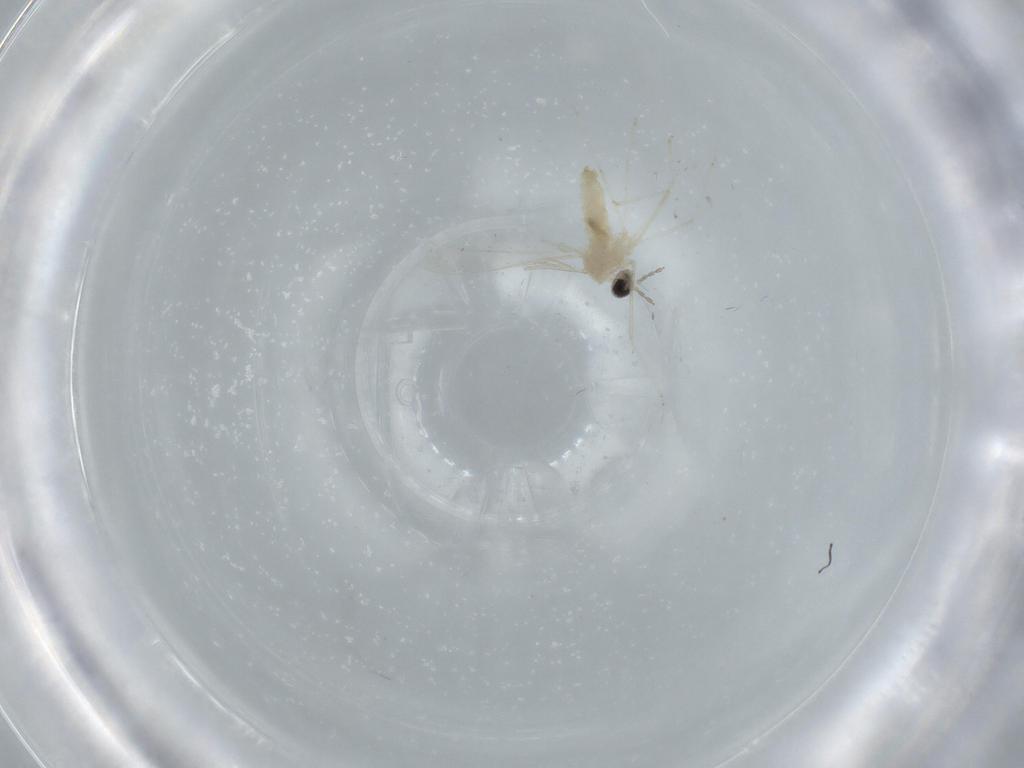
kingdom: Animalia
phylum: Arthropoda
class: Insecta
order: Diptera
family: Cecidomyiidae
